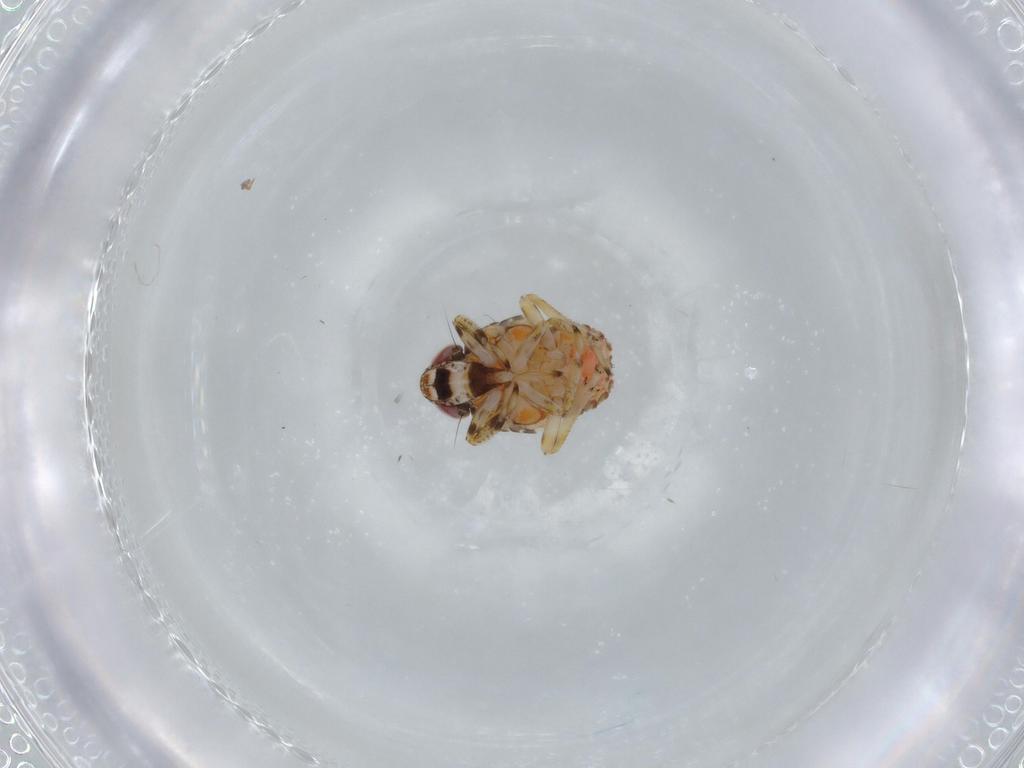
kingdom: Animalia
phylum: Arthropoda
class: Insecta
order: Hemiptera
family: Issidae
